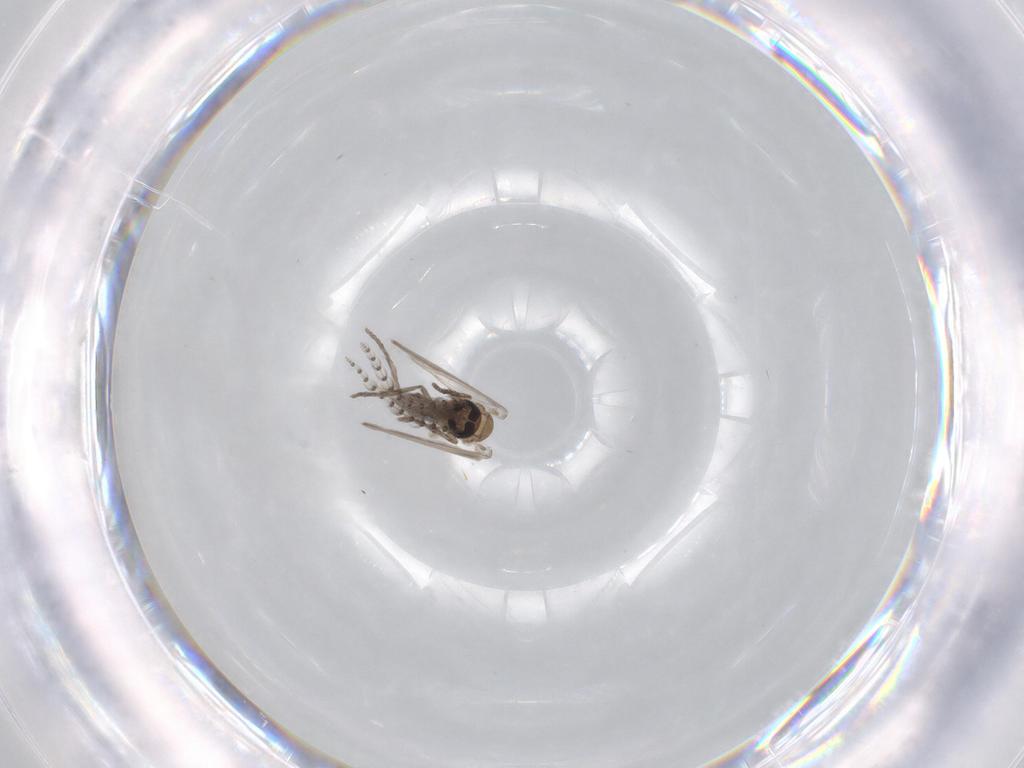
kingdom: Animalia
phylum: Arthropoda
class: Insecta
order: Diptera
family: Psychodidae
